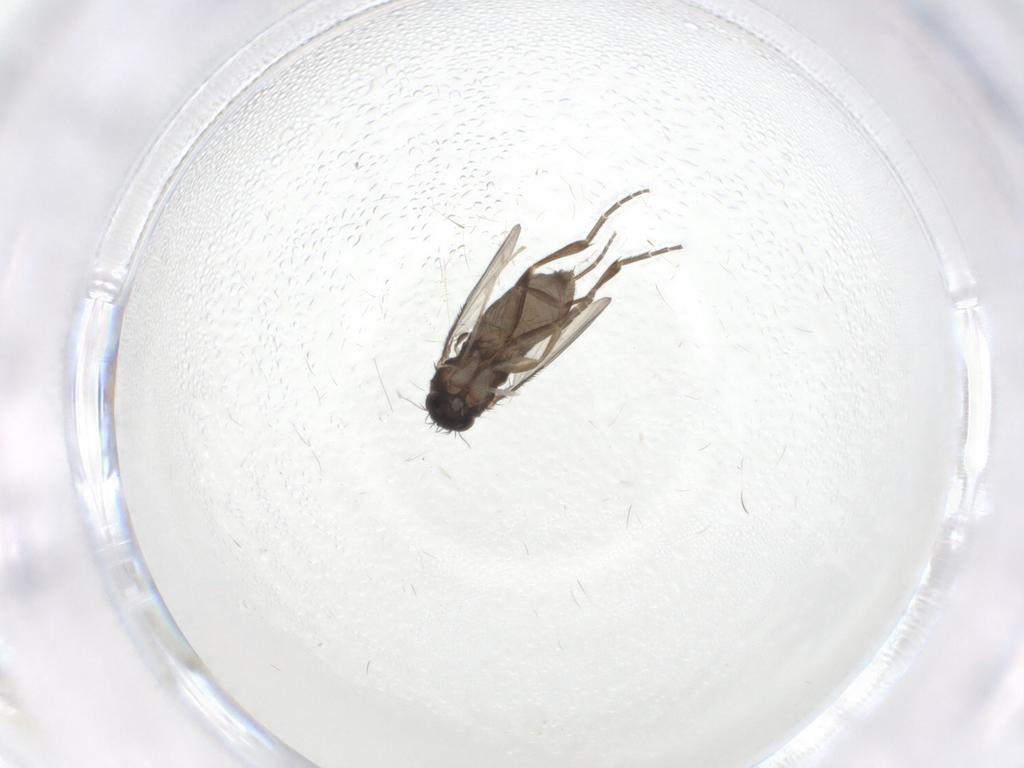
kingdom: Animalia
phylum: Arthropoda
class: Insecta
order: Diptera
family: Phoridae
